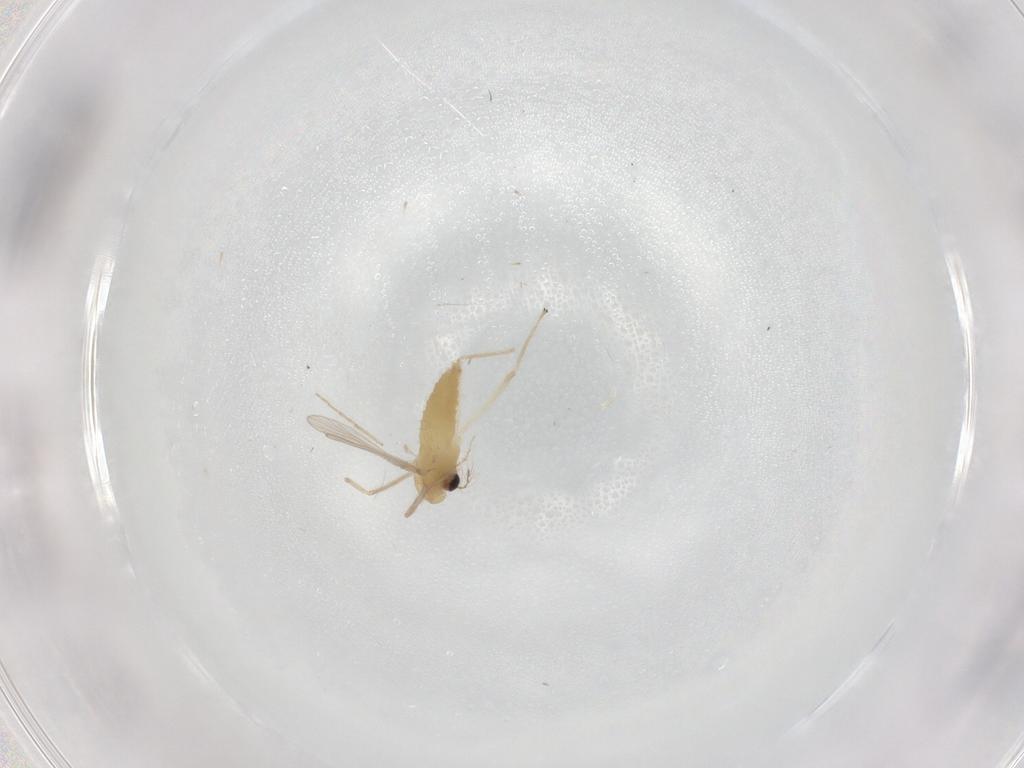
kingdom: Animalia
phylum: Arthropoda
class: Insecta
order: Diptera
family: Chironomidae
